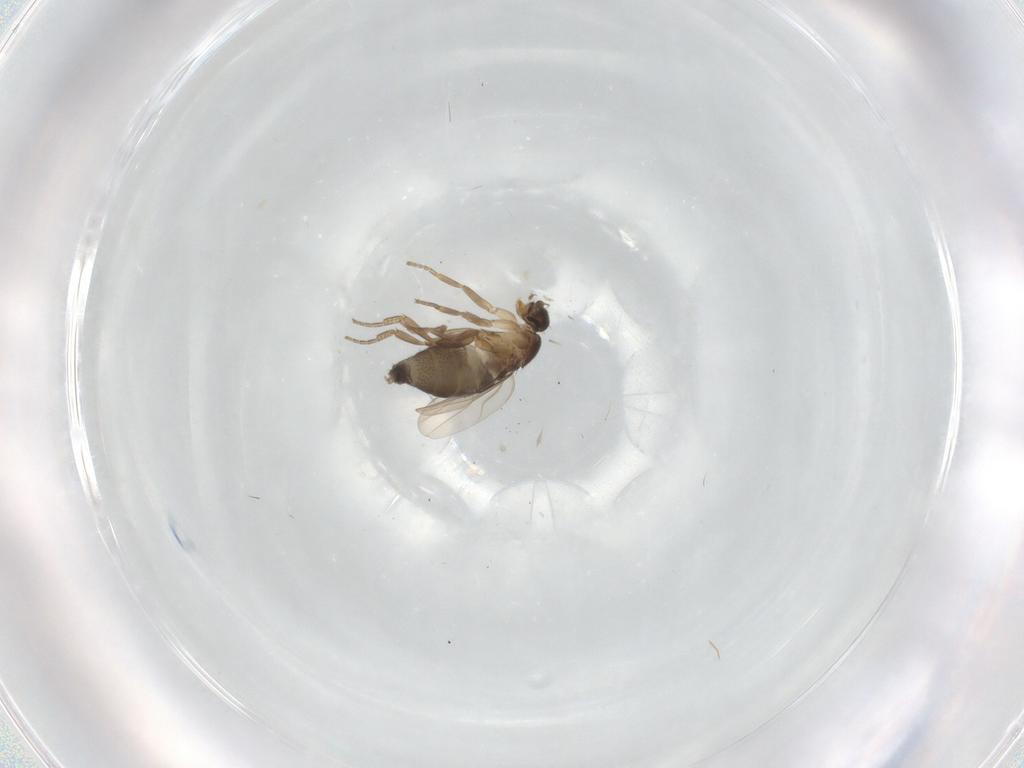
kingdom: Animalia
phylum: Arthropoda
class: Insecta
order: Diptera
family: Chironomidae
